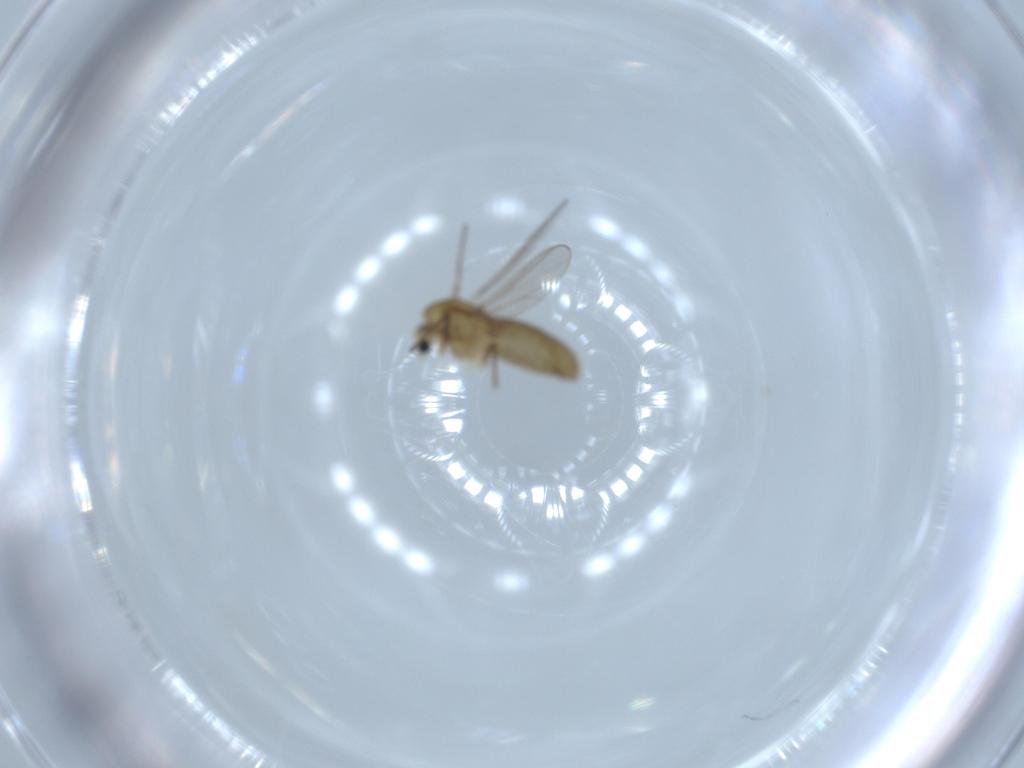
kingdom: Animalia
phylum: Arthropoda
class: Insecta
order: Diptera
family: Chironomidae
